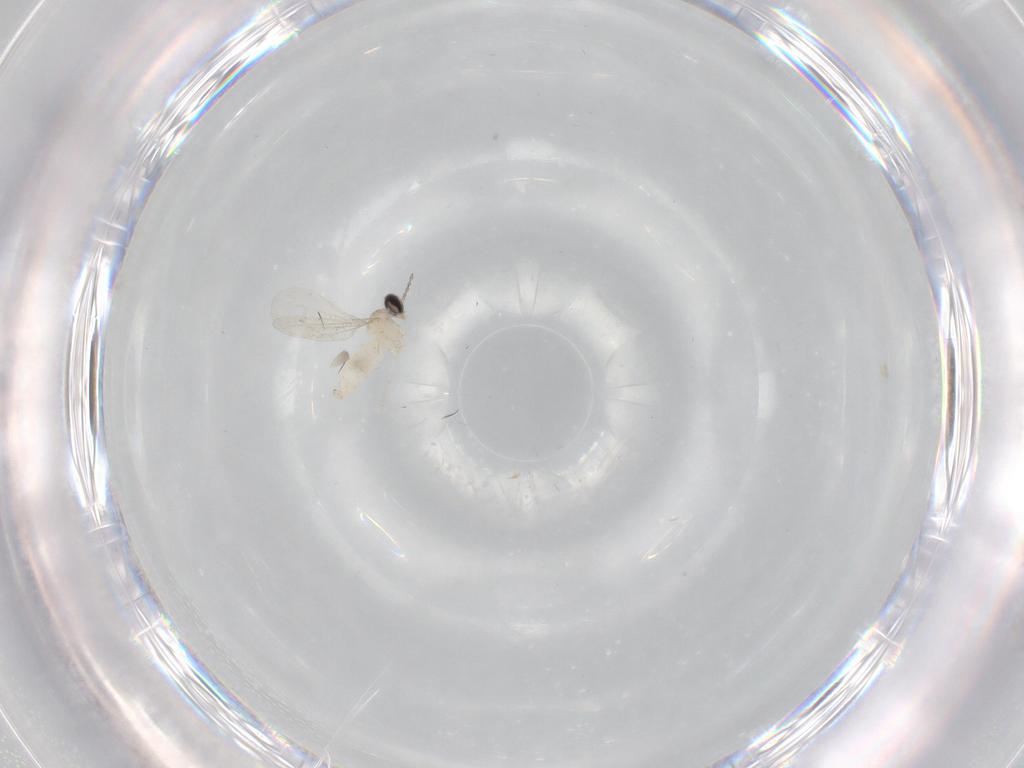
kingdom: Animalia
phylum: Arthropoda
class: Insecta
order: Diptera
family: Cecidomyiidae
